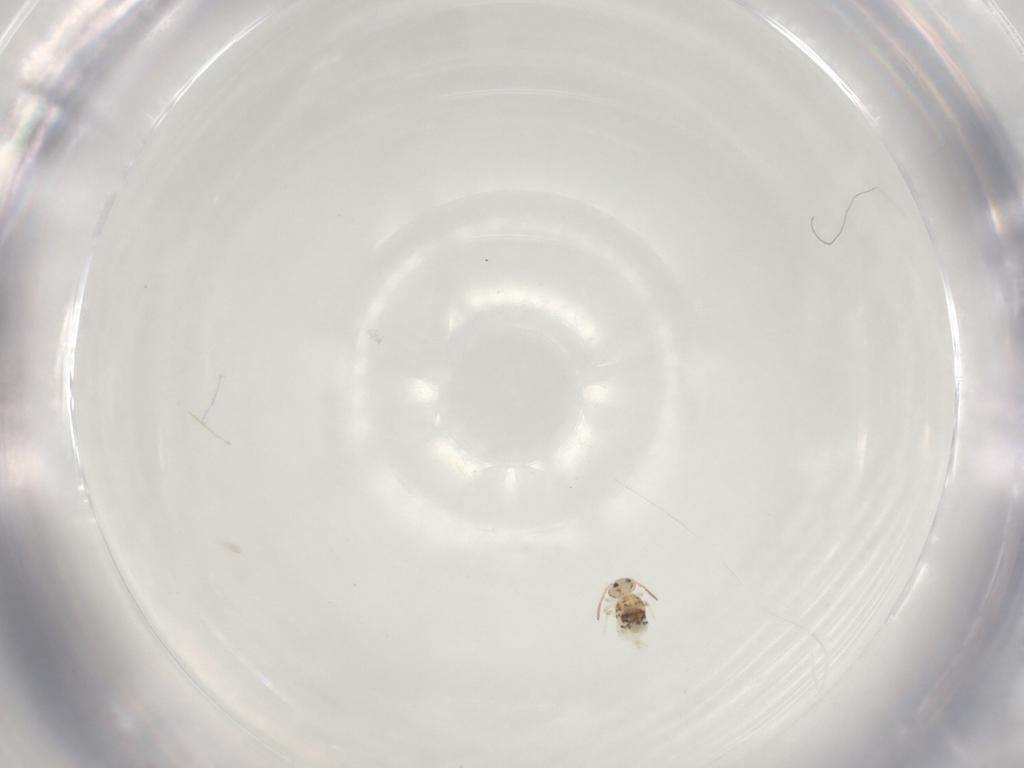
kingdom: Animalia
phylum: Arthropoda
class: Collembola
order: Symphypleona
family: Bourletiellidae
